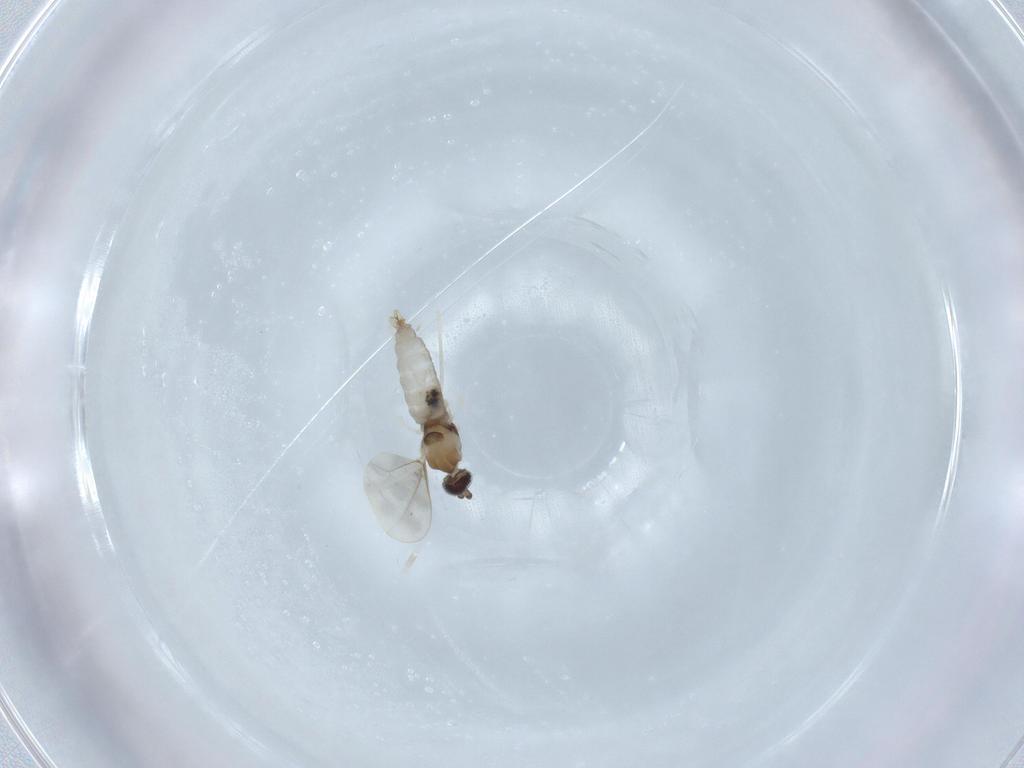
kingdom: Animalia
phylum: Arthropoda
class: Insecta
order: Diptera
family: Cecidomyiidae
